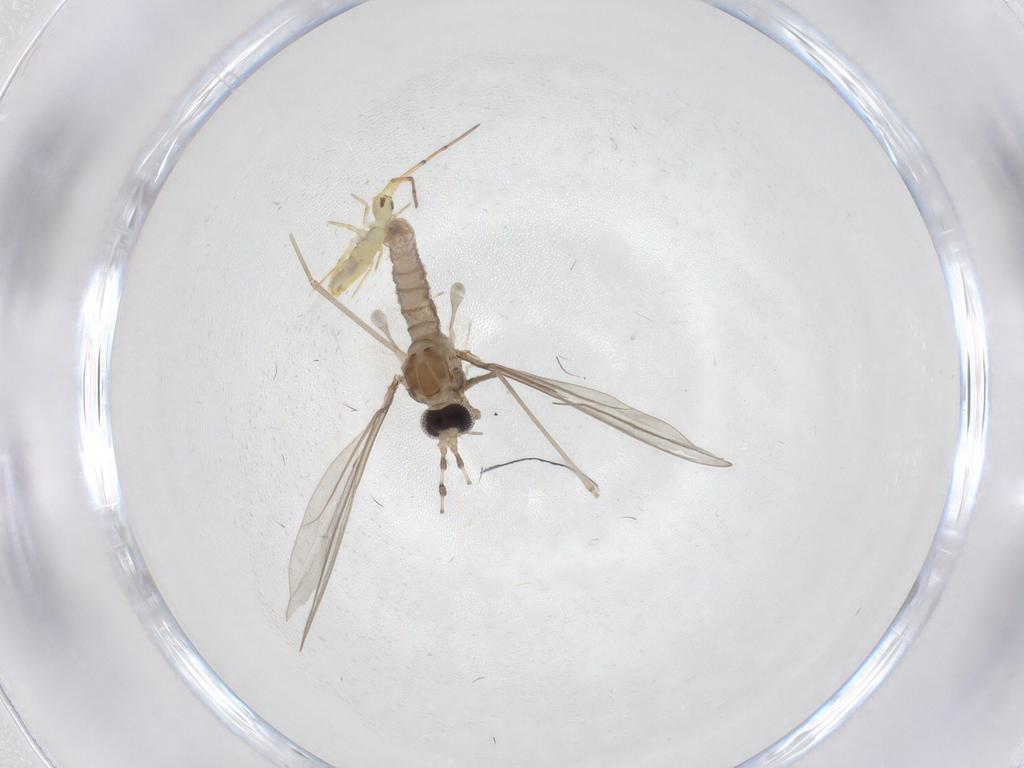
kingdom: Animalia
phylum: Arthropoda
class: Insecta
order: Diptera
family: Cecidomyiidae
